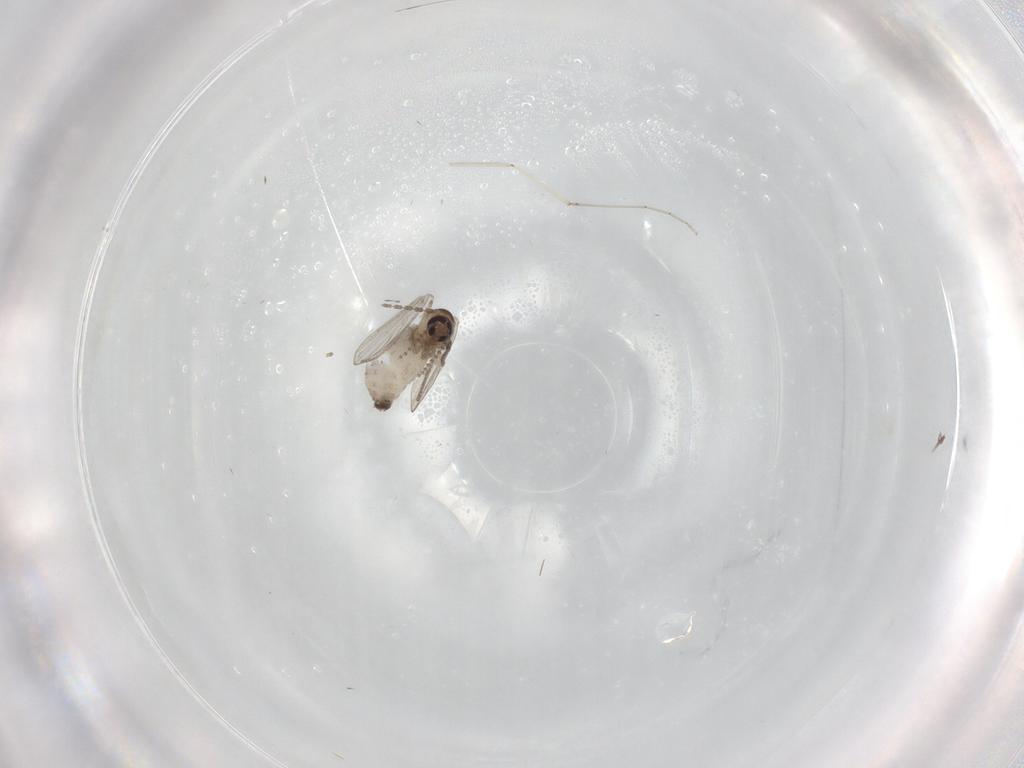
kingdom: Animalia
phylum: Arthropoda
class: Insecta
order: Diptera
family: Psychodidae
